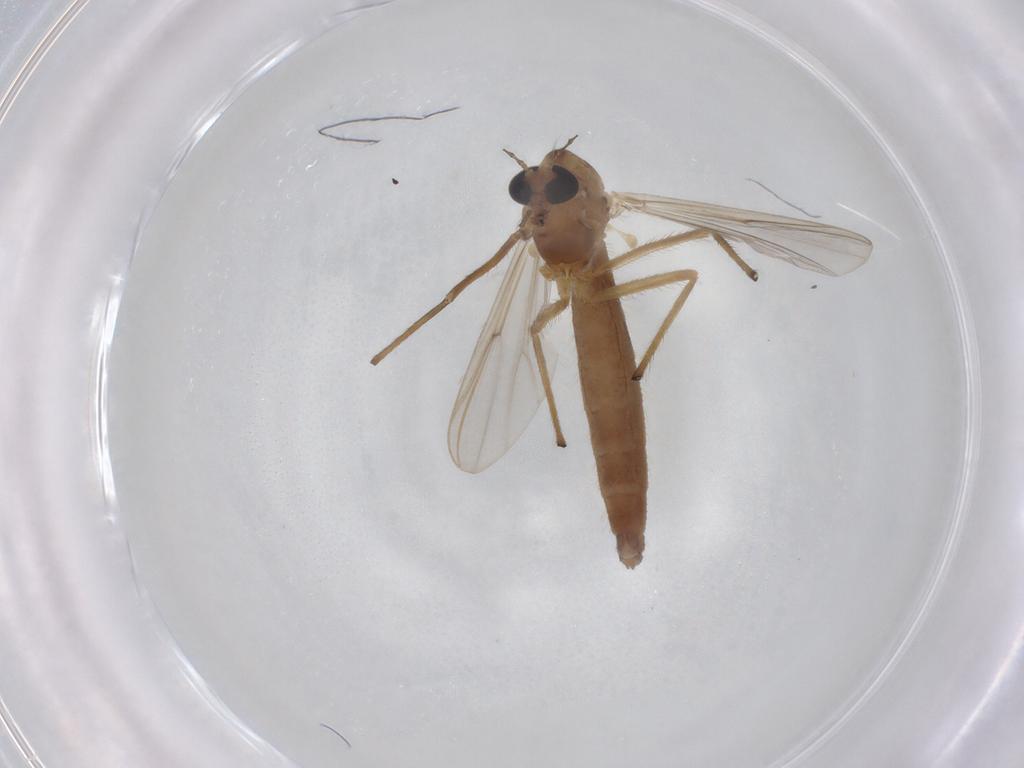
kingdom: Animalia
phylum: Arthropoda
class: Insecta
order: Diptera
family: Chironomidae
